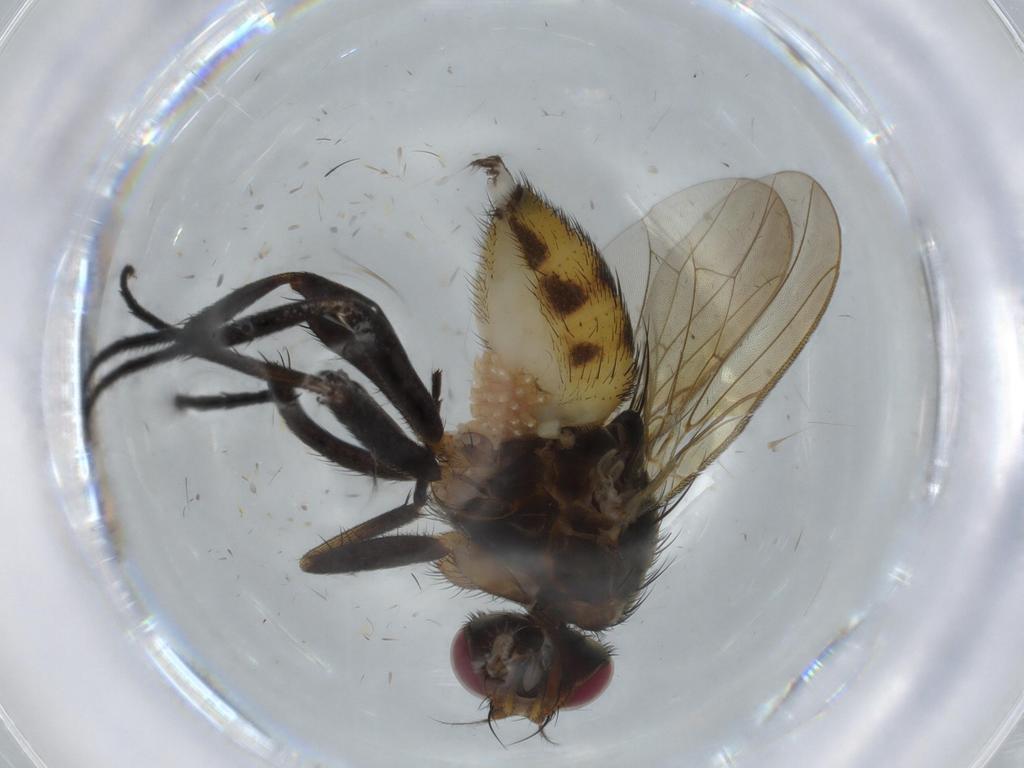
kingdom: Animalia
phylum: Arthropoda
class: Insecta
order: Diptera
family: Anthomyiidae
